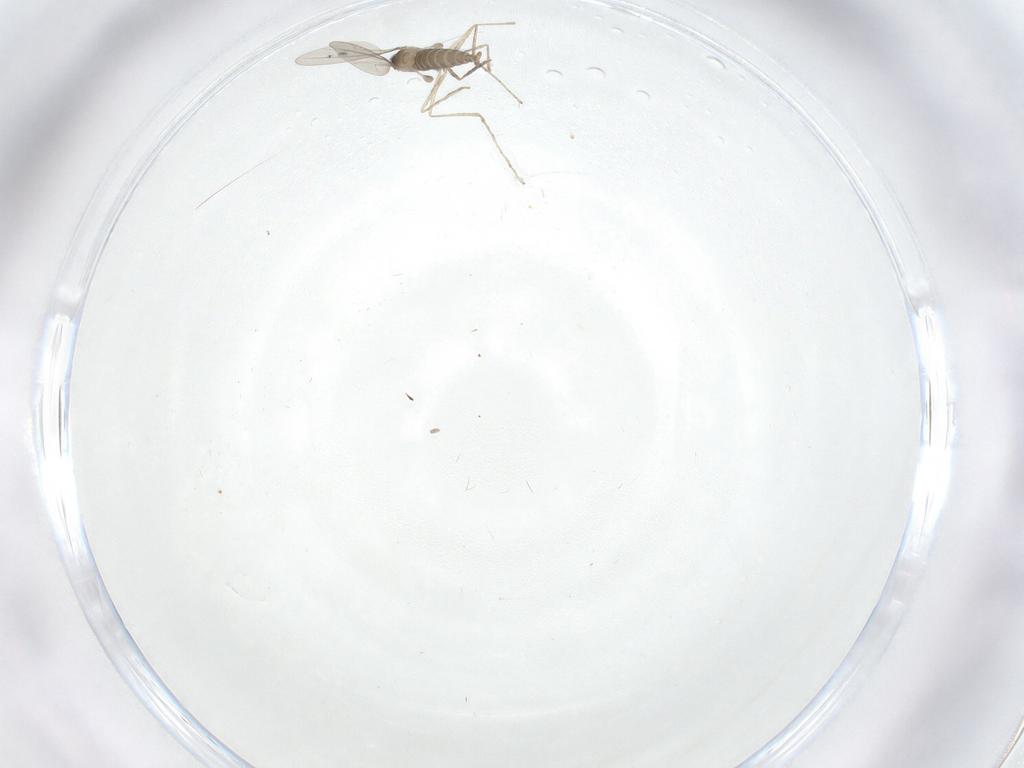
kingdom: Animalia
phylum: Arthropoda
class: Insecta
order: Diptera
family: Cecidomyiidae
